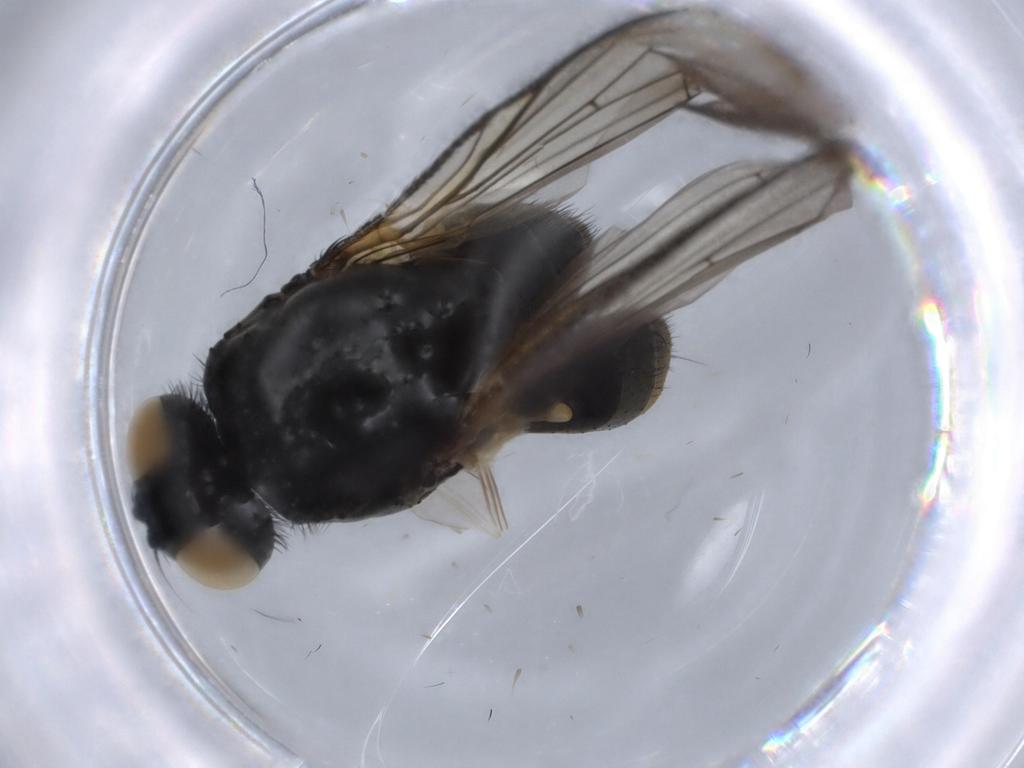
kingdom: Animalia
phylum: Arthropoda
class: Insecta
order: Diptera
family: Muscidae
